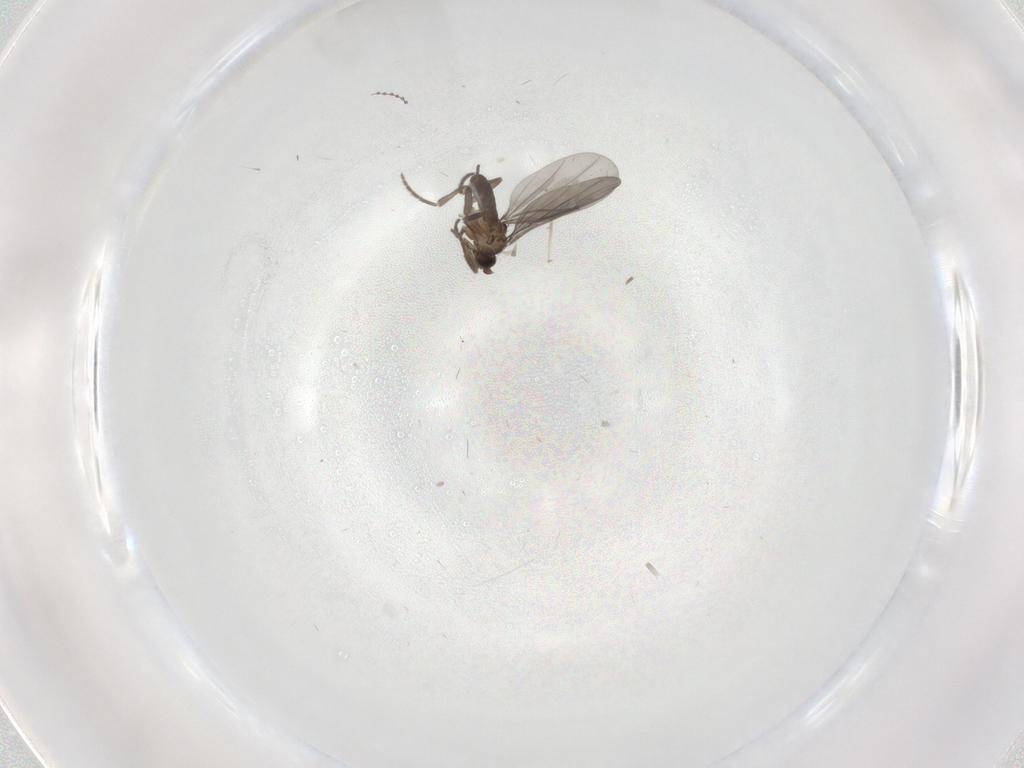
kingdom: Animalia
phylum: Arthropoda
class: Insecta
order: Diptera
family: Phoridae
